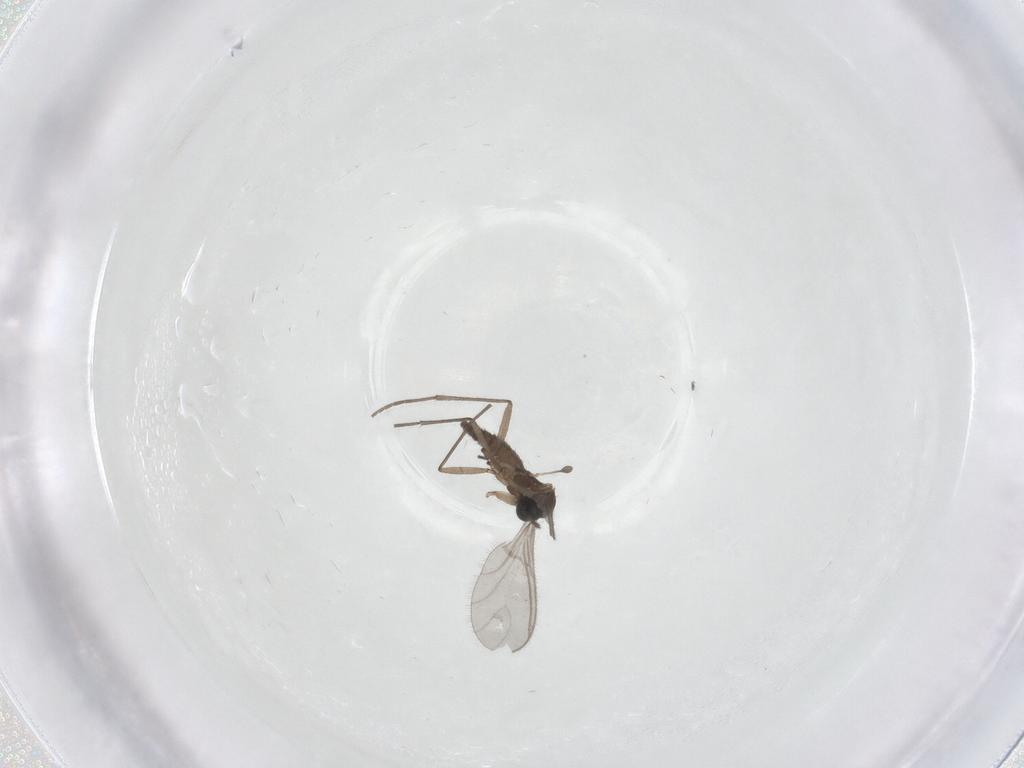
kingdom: Animalia
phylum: Arthropoda
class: Insecta
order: Diptera
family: Sciaridae
